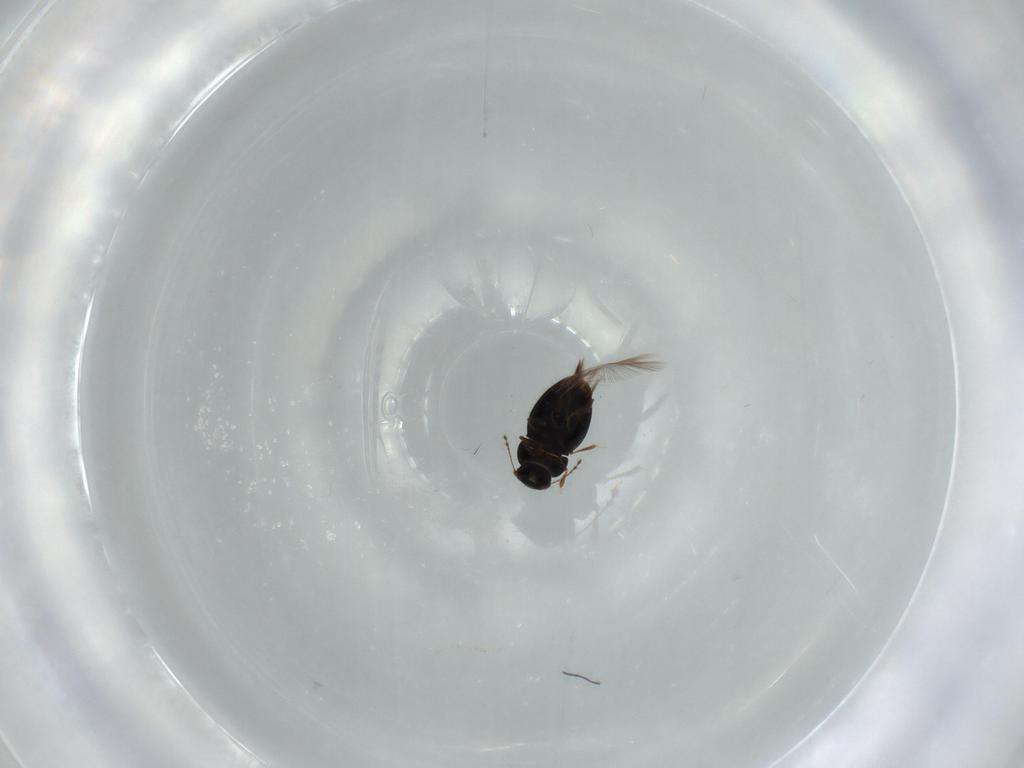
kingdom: Animalia
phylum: Arthropoda
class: Insecta
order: Coleoptera
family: Ptiliidae
